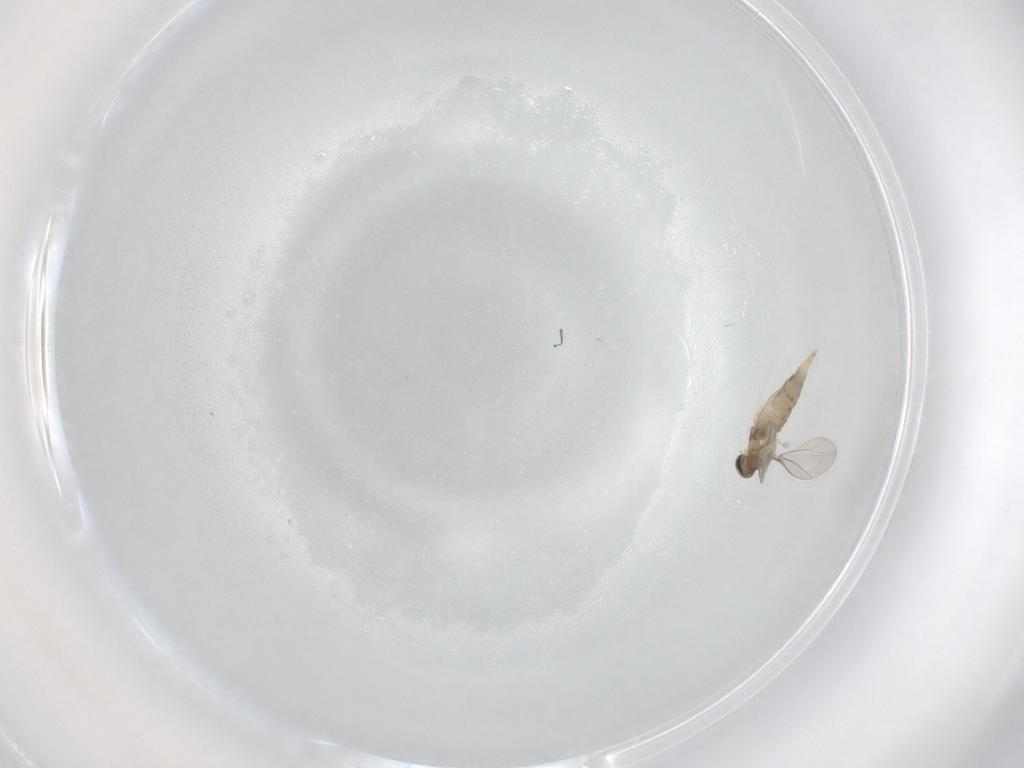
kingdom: Animalia
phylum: Arthropoda
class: Insecta
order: Diptera
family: Cecidomyiidae
